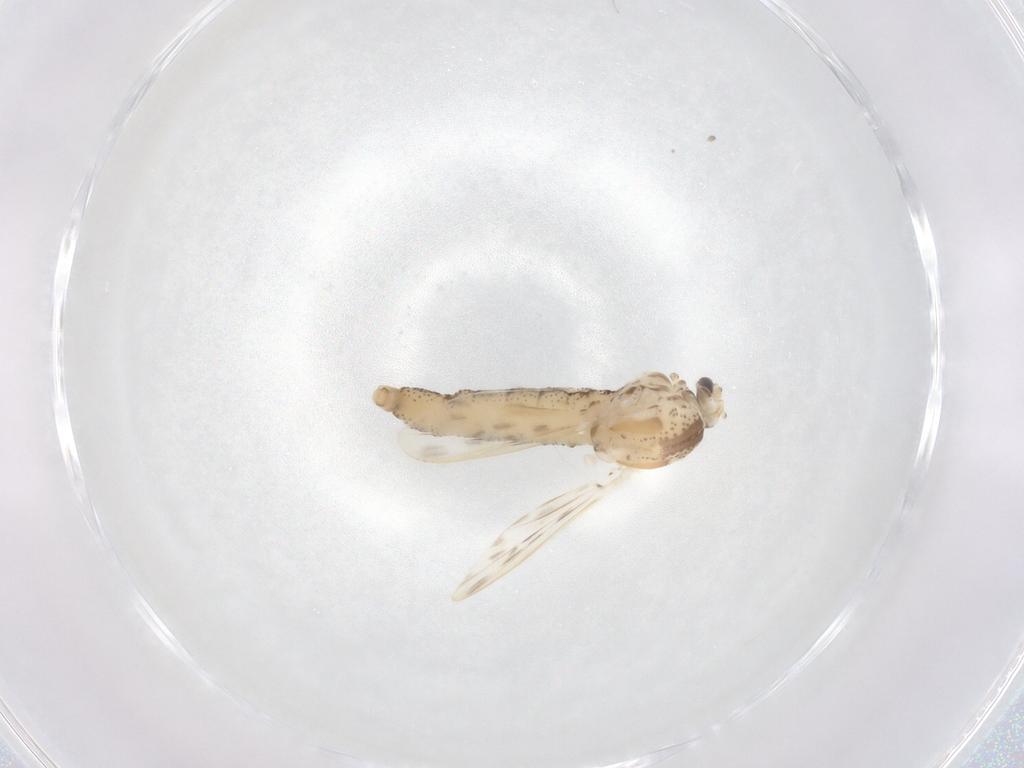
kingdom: Animalia
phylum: Arthropoda
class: Insecta
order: Diptera
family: Chaoboridae
